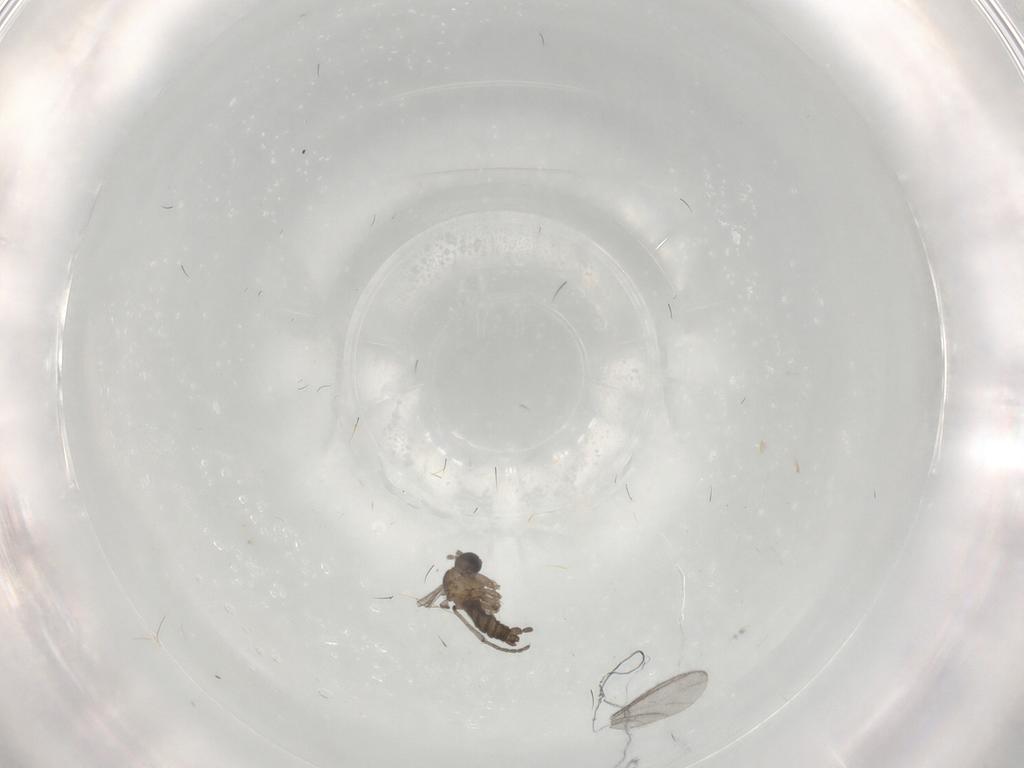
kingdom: Animalia
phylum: Arthropoda
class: Insecta
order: Diptera
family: Sciaridae
